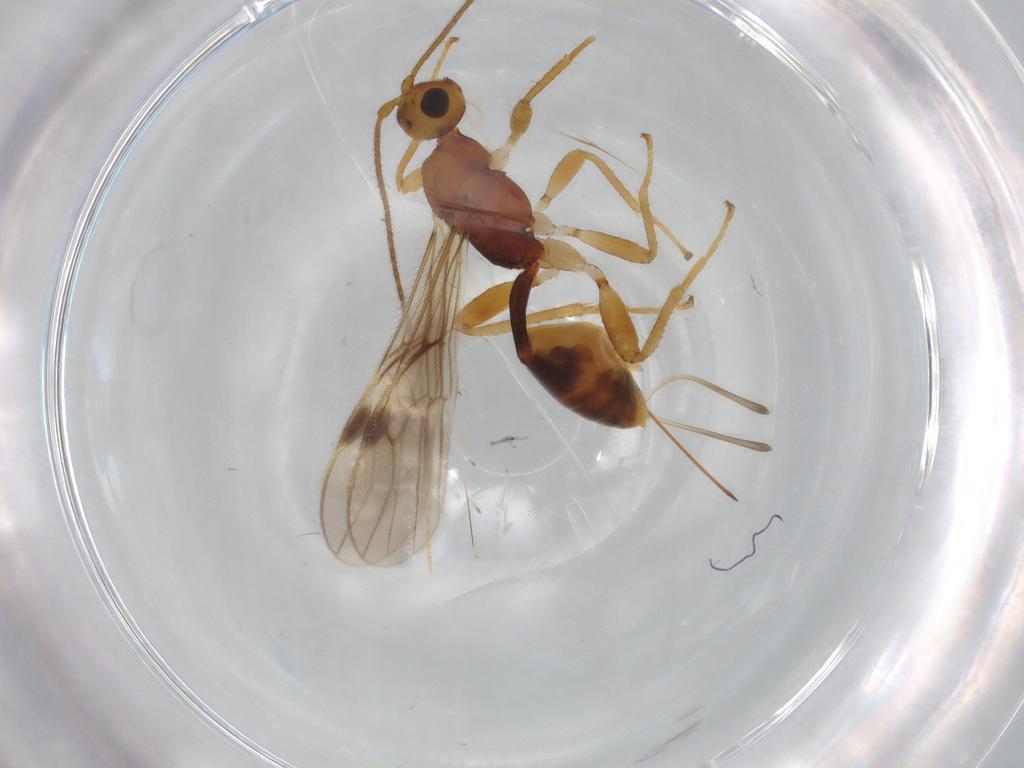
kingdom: Animalia
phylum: Arthropoda
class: Insecta
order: Hymenoptera
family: Braconidae
